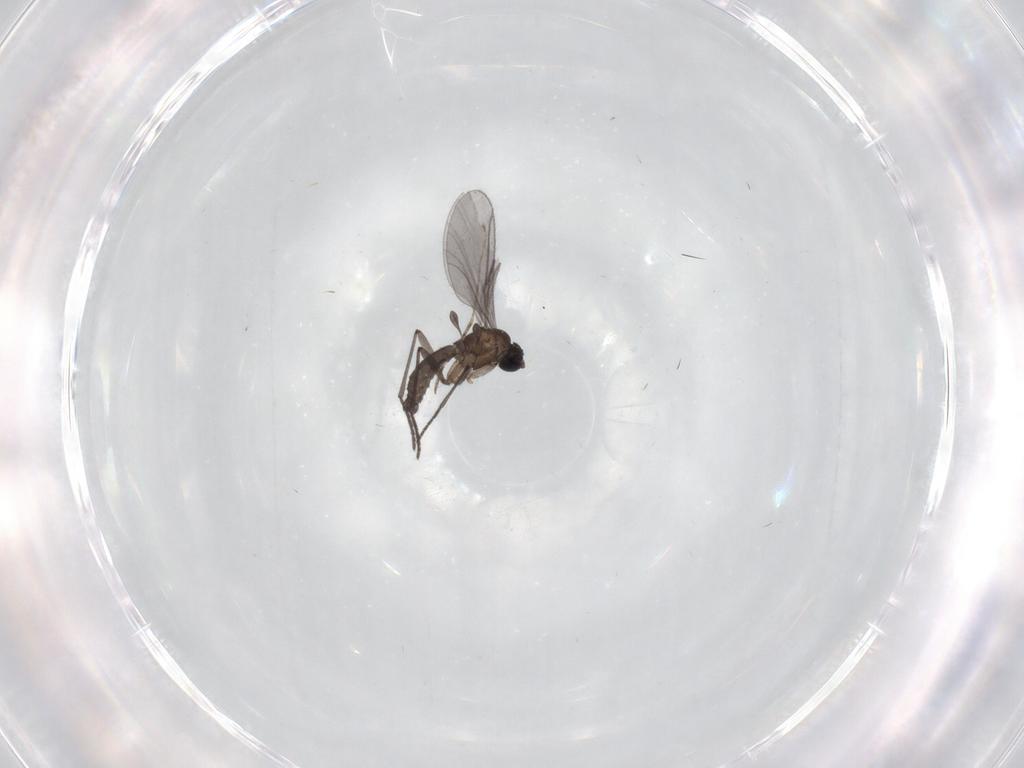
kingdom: Animalia
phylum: Arthropoda
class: Insecta
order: Diptera
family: Cecidomyiidae
